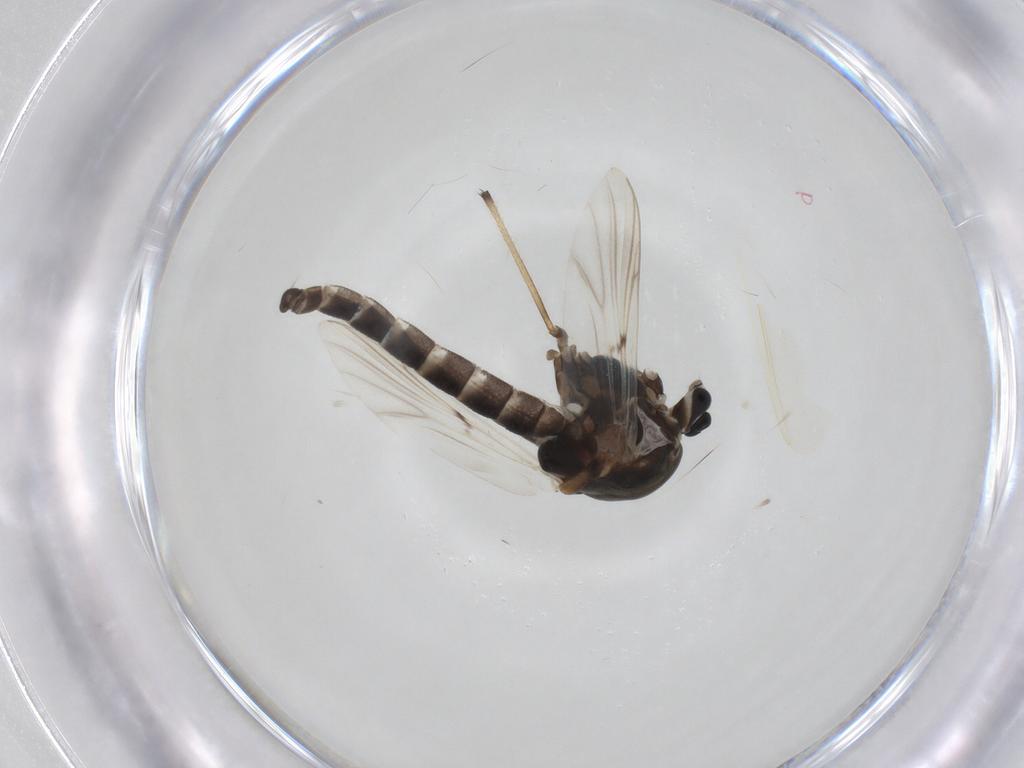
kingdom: Animalia
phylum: Arthropoda
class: Insecta
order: Diptera
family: Chironomidae
